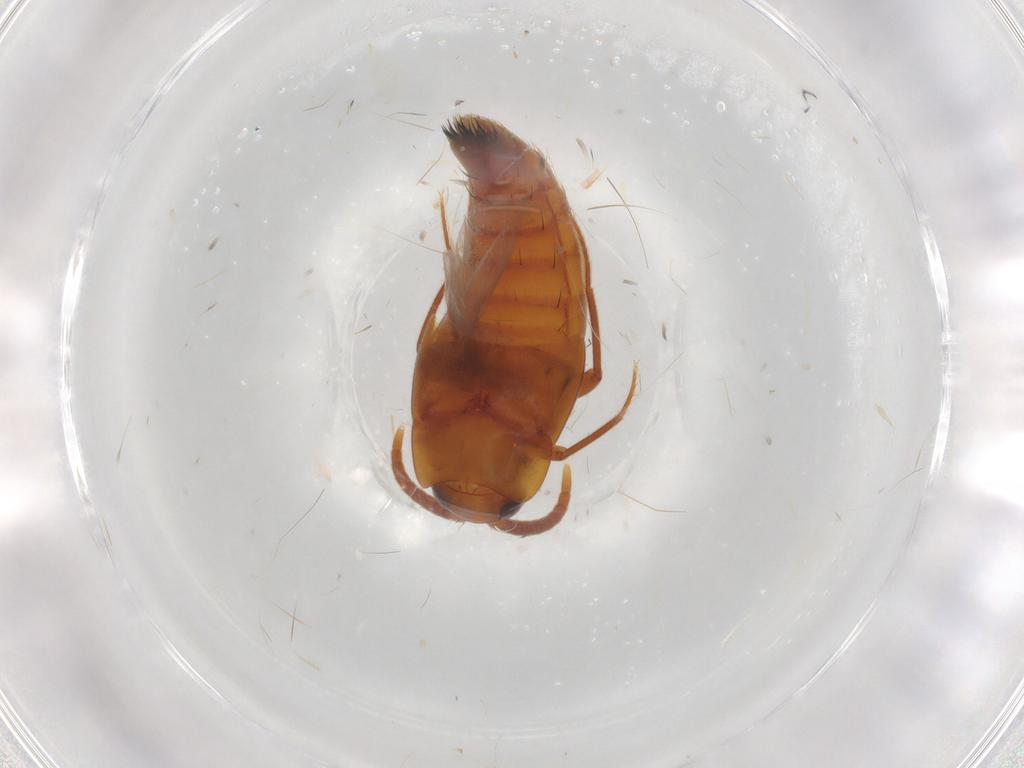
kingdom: Animalia
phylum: Arthropoda
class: Insecta
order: Coleoptera
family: Staphylinidae
